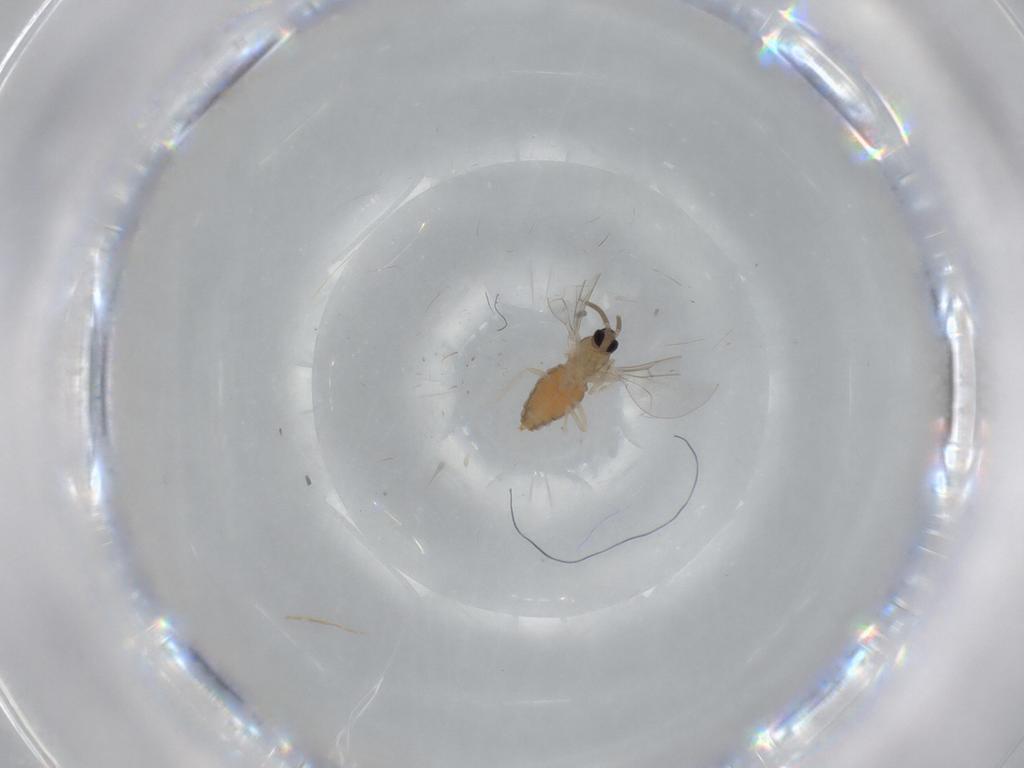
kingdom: Animalia
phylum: Arthropoda
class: Insecta
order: Diptera
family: Cecidomyiidae
